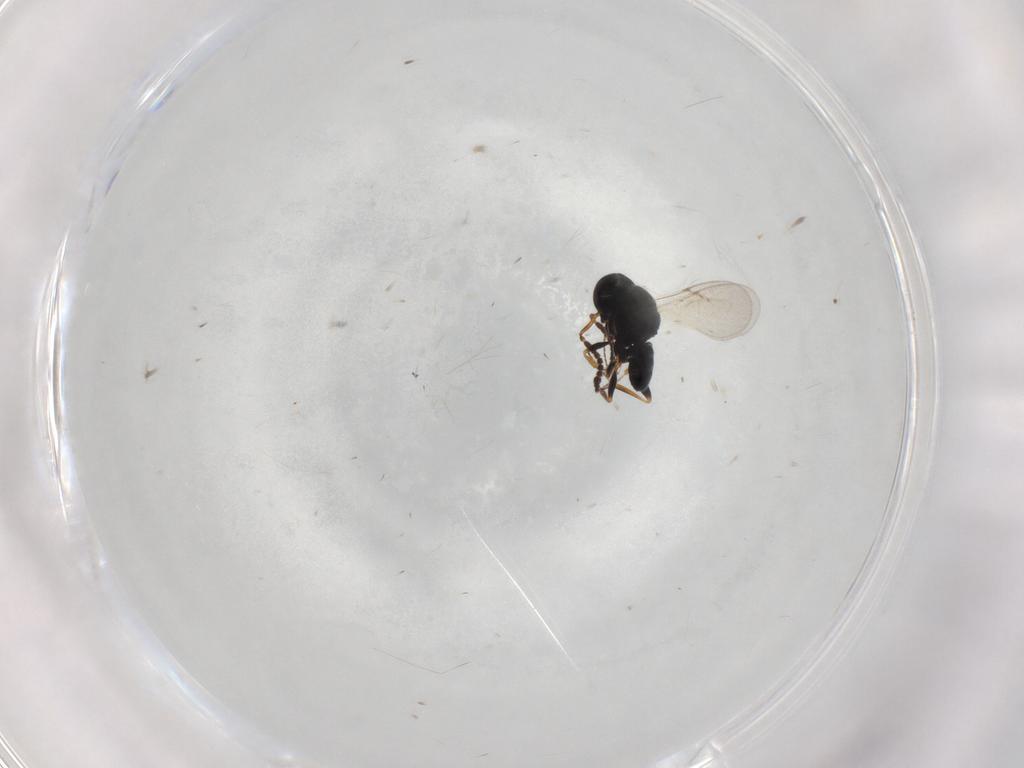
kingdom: Animalia
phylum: Arthropoda
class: Insecta
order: Coleoptera
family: Curculionidae
